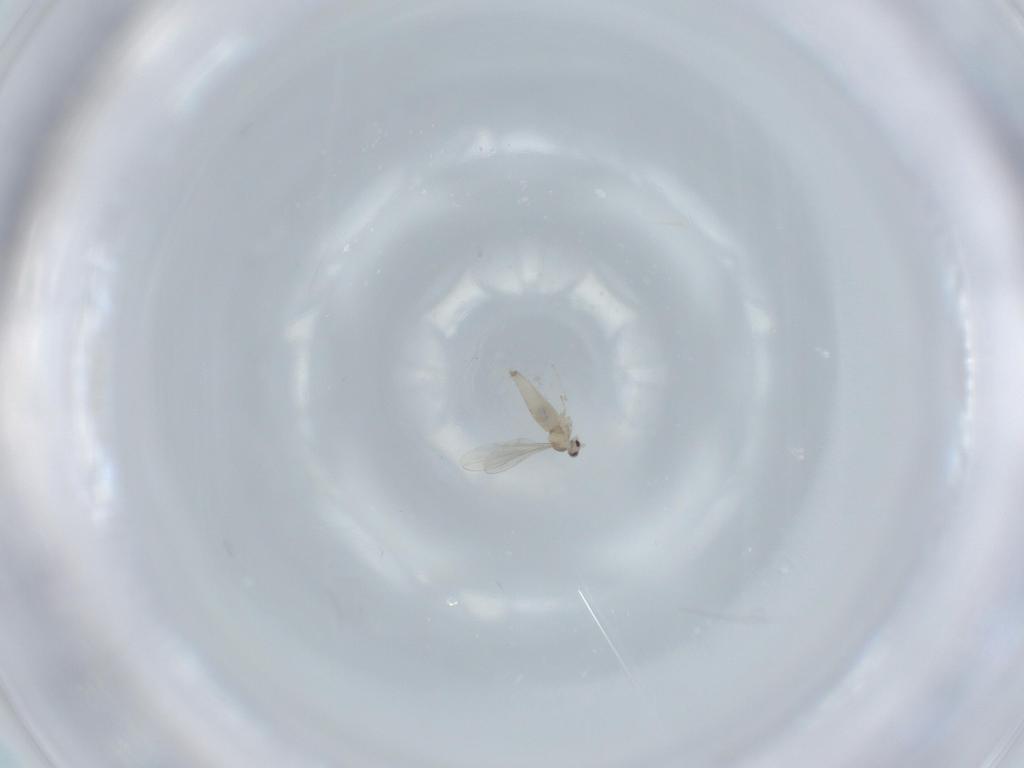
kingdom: Animalia
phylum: Arthropoda
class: Insecta
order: Diptera
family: Cecidomyiidae
